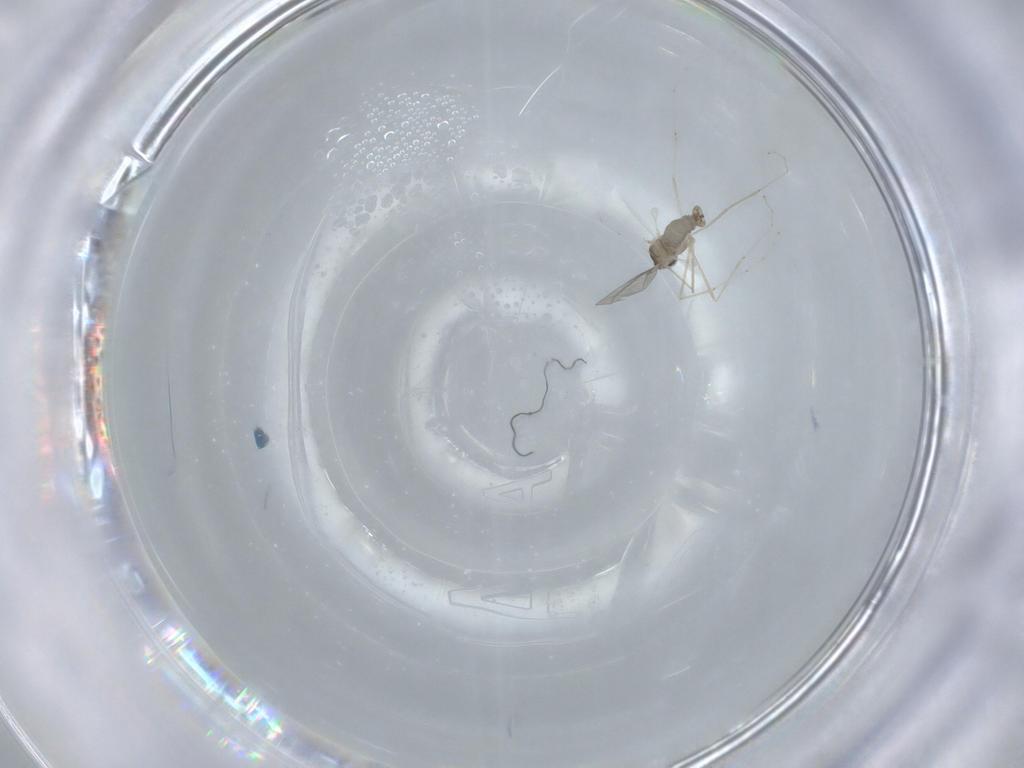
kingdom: Animalia
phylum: Arthropoda
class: Insecta
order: Diptera
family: Cecidomyiidae
